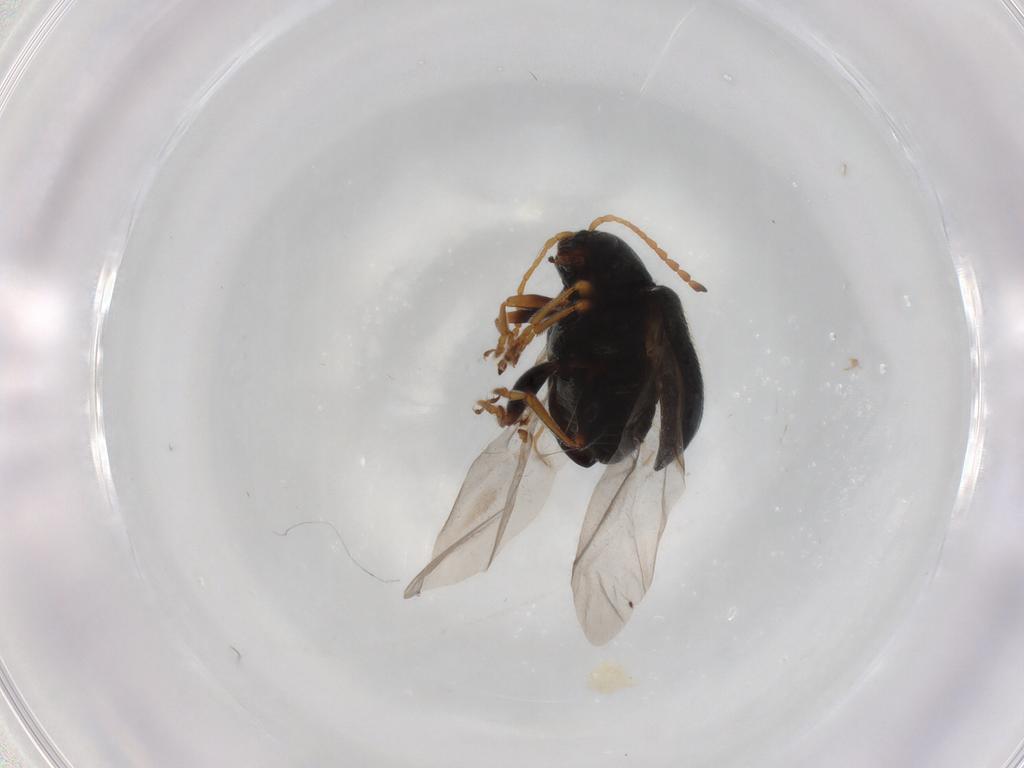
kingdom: Animalia
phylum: Arthropoda
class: Insecta
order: Coleoptera
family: Chrysomelidae
